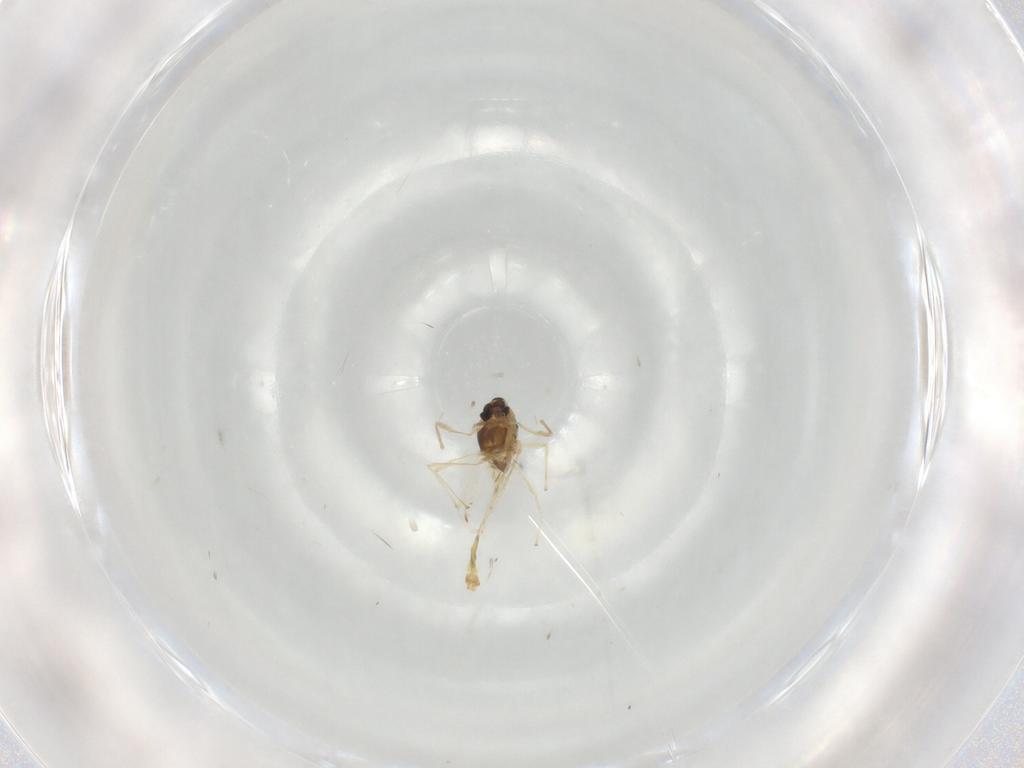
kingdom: Animalia
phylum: Arthropoda
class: Insecta
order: Diptera
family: Chironomidae
